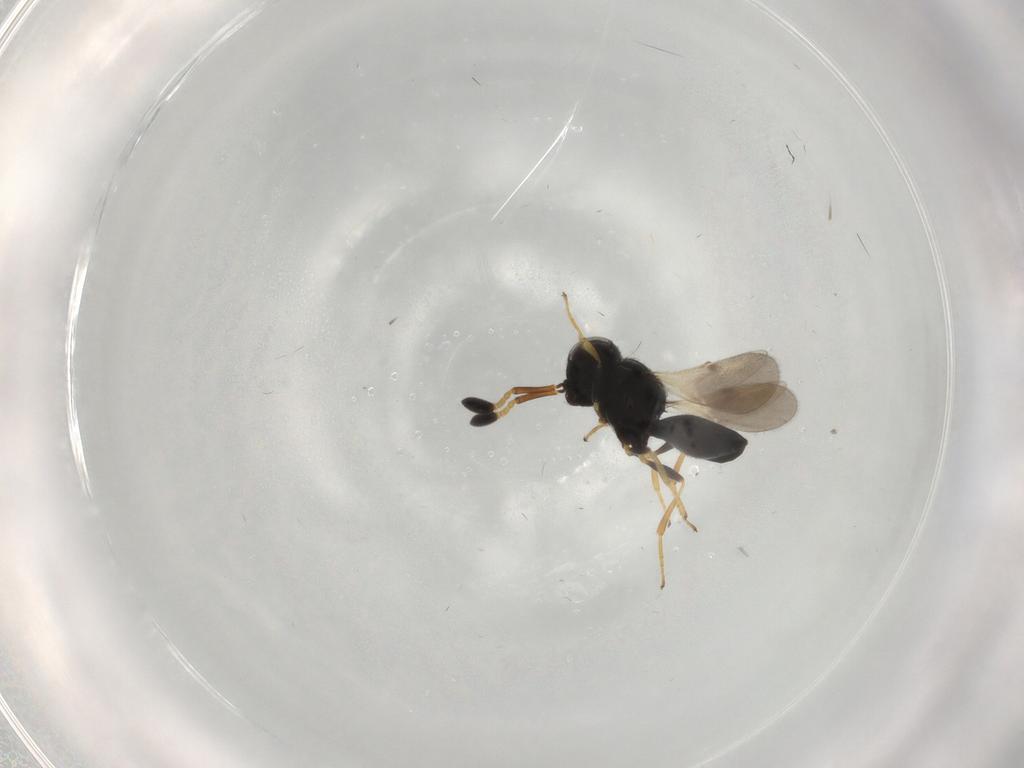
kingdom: Animalia
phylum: Arthropoda
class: Insecta
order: Hymenoptera
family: Scelionidae
